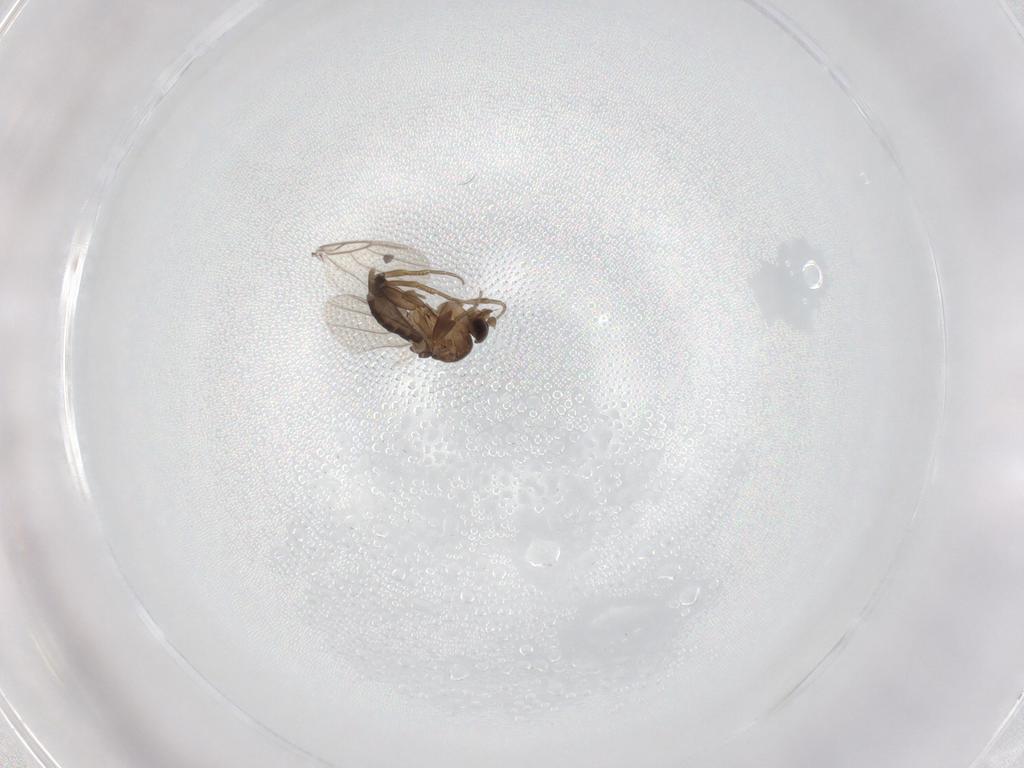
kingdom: Animalia
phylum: Arthropoda
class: Insecta
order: Diptera
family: Phoridae
